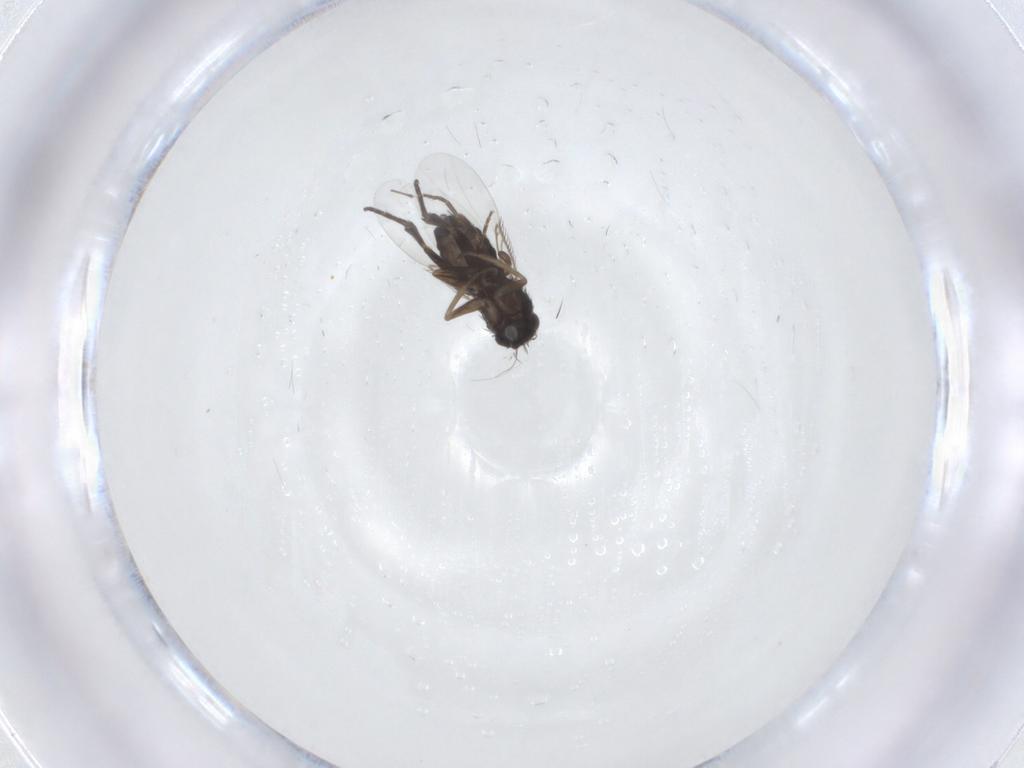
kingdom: Animalia
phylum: Arthropoda
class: Insecta
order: Diptera
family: Phoridae
